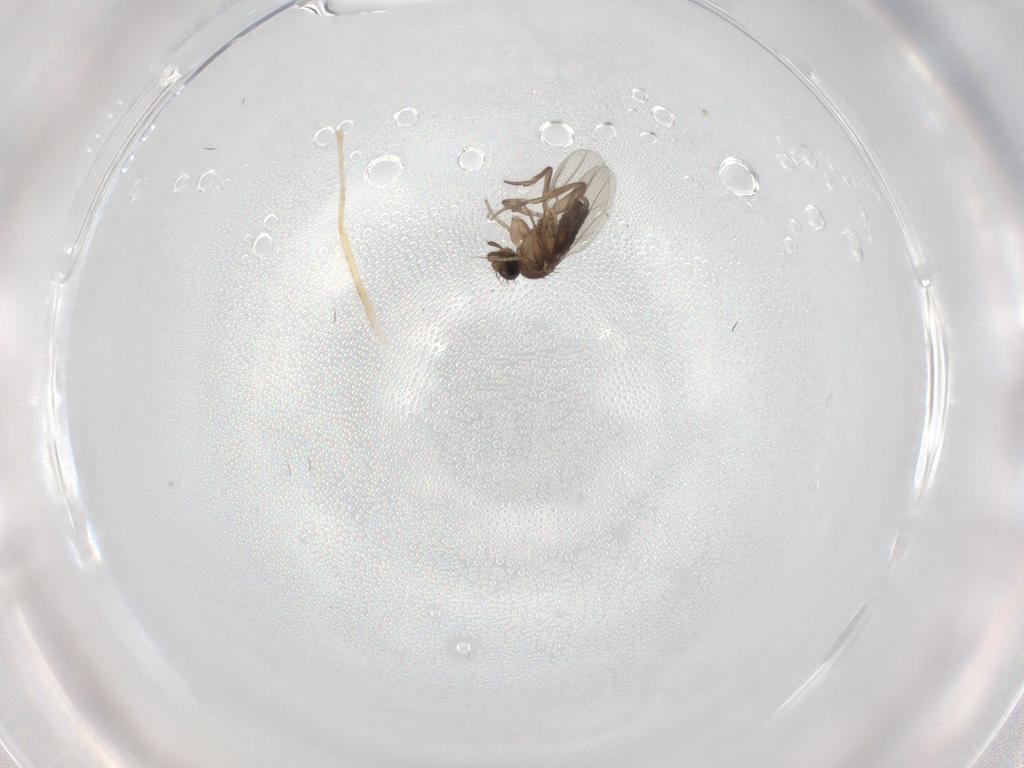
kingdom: Animalia
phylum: Arthropoda
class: Insecta
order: Diptera
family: Chironomidae
